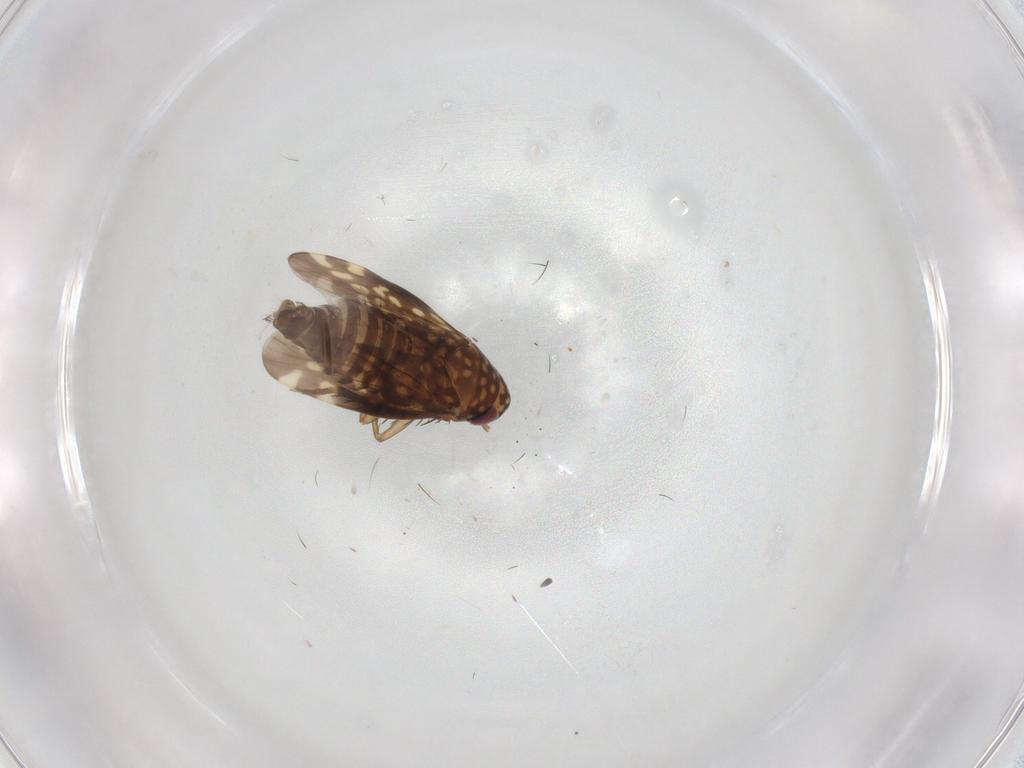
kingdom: Animalia
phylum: Arthropoda
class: Insecta
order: Hemiptera
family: Cicadellidae
